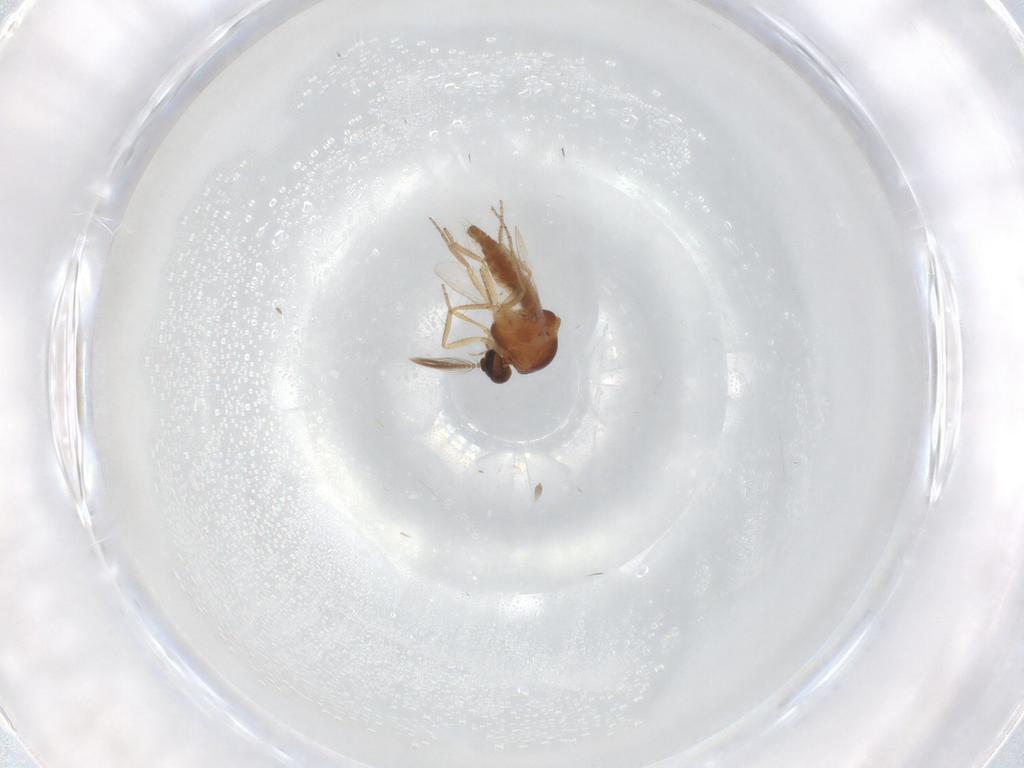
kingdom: Animalia
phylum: Arthropoda
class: Insecta
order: Diptera
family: Ceratopogonidae
